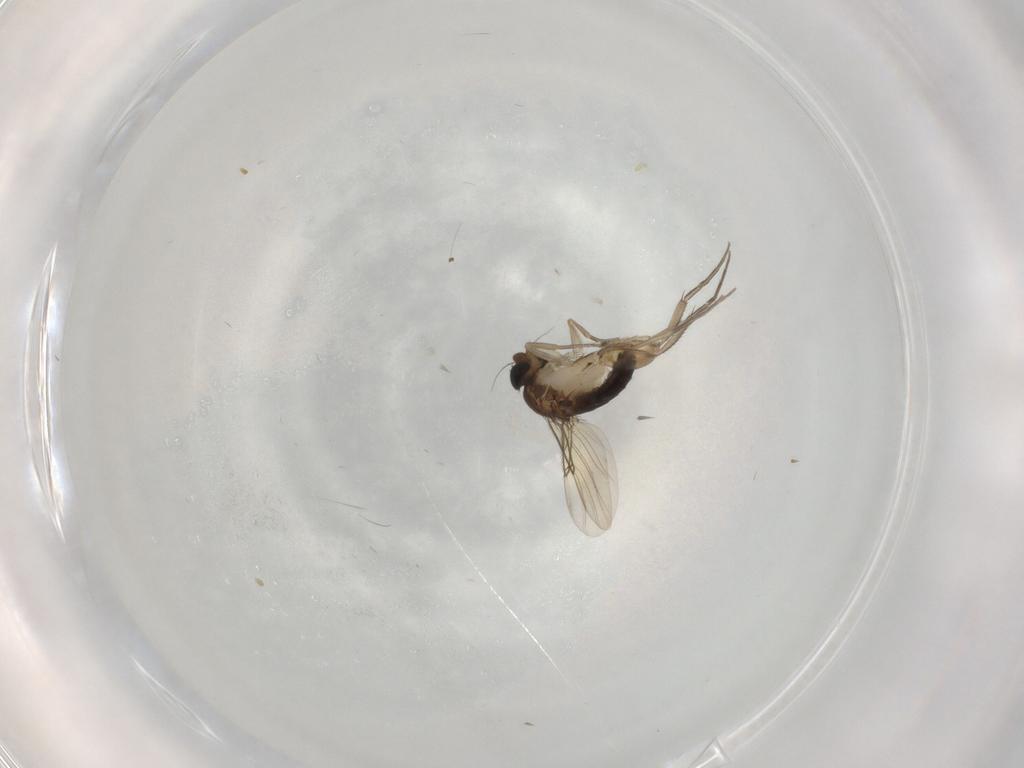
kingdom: Animalia
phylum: Arthropoda
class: Insecta
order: Diptera
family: Phoridae
